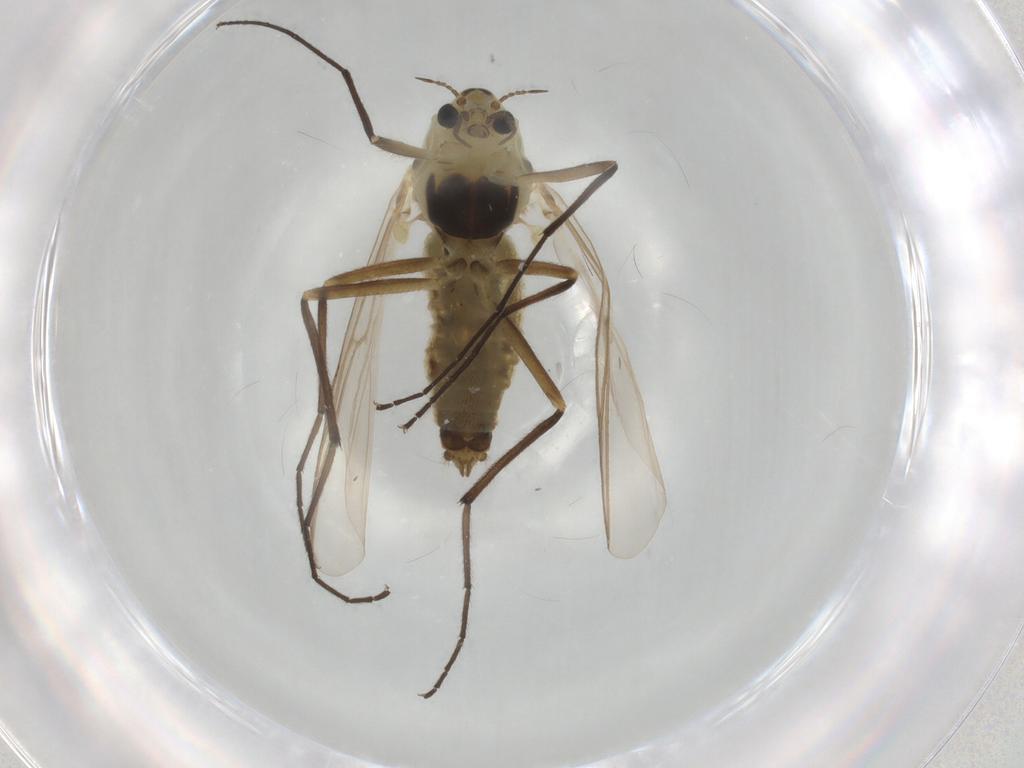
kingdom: Animalia
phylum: Arthropoda
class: Insecta
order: Diptera
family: Chironomidae
